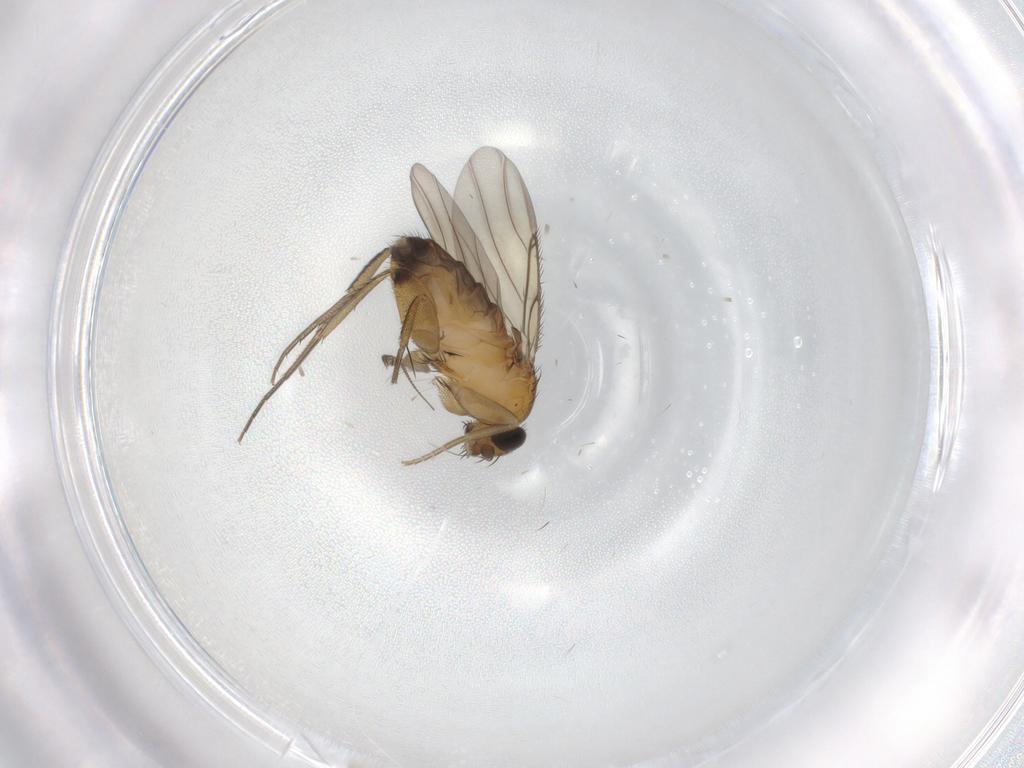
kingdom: Animalia
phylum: Arthropoda
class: Insecta
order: Diptera
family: Phoridae
